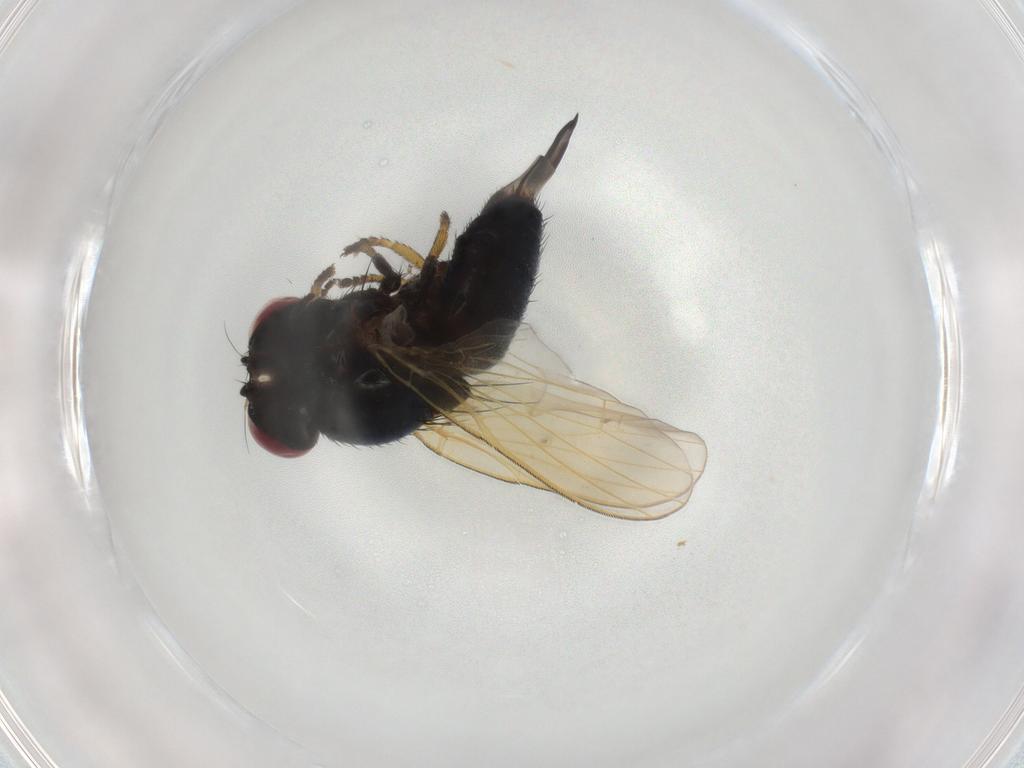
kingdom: Animalia
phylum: Arthropoda
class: Insecta
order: Diptera
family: Lonchaeidae
